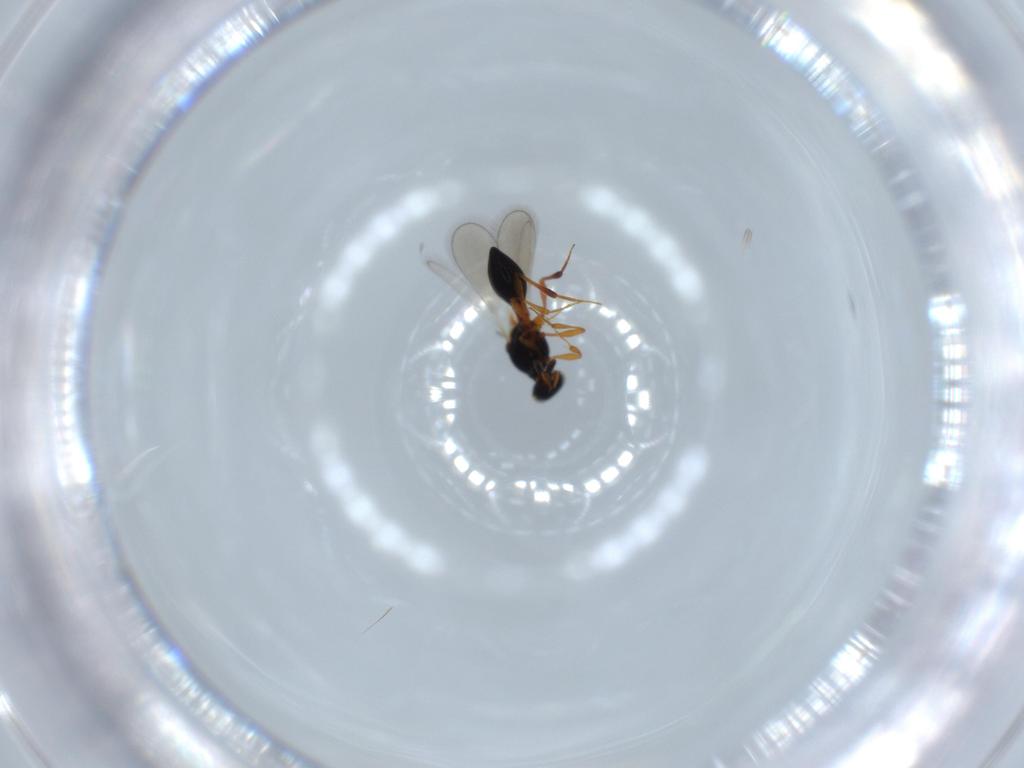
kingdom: Animalia
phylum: Arthropoda
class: Insecta
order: Hymenoptera
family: Platygastridae
